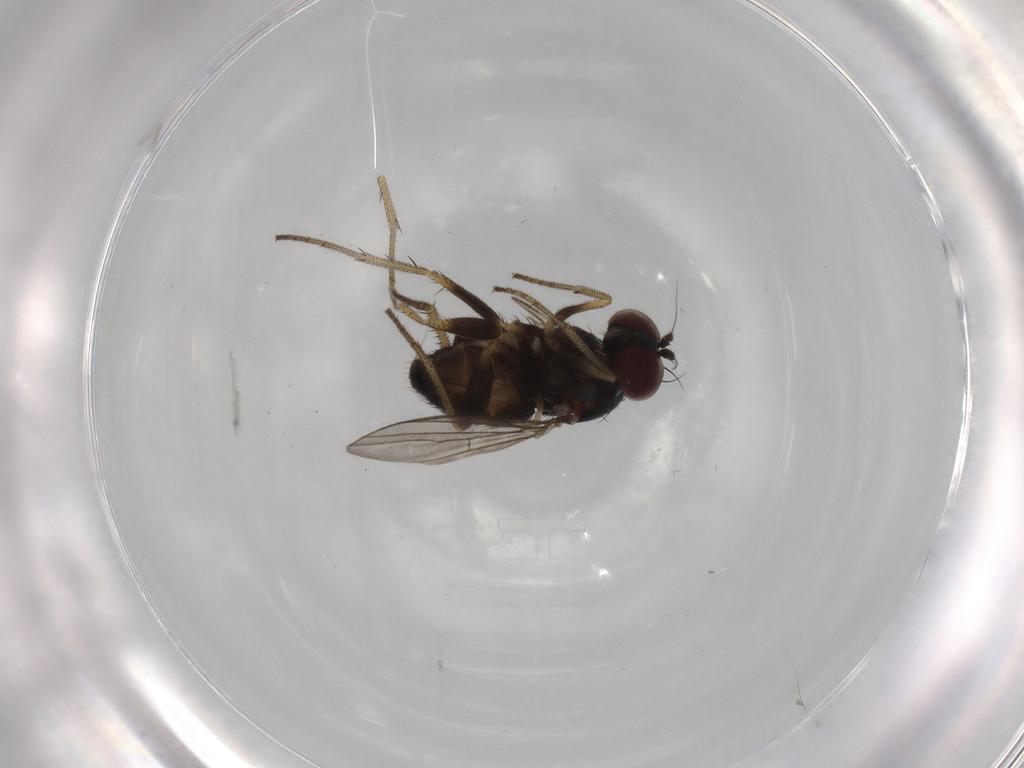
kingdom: Animalia
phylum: Arthropoda
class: Insecta
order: Diptera
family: Dolichopodidae
